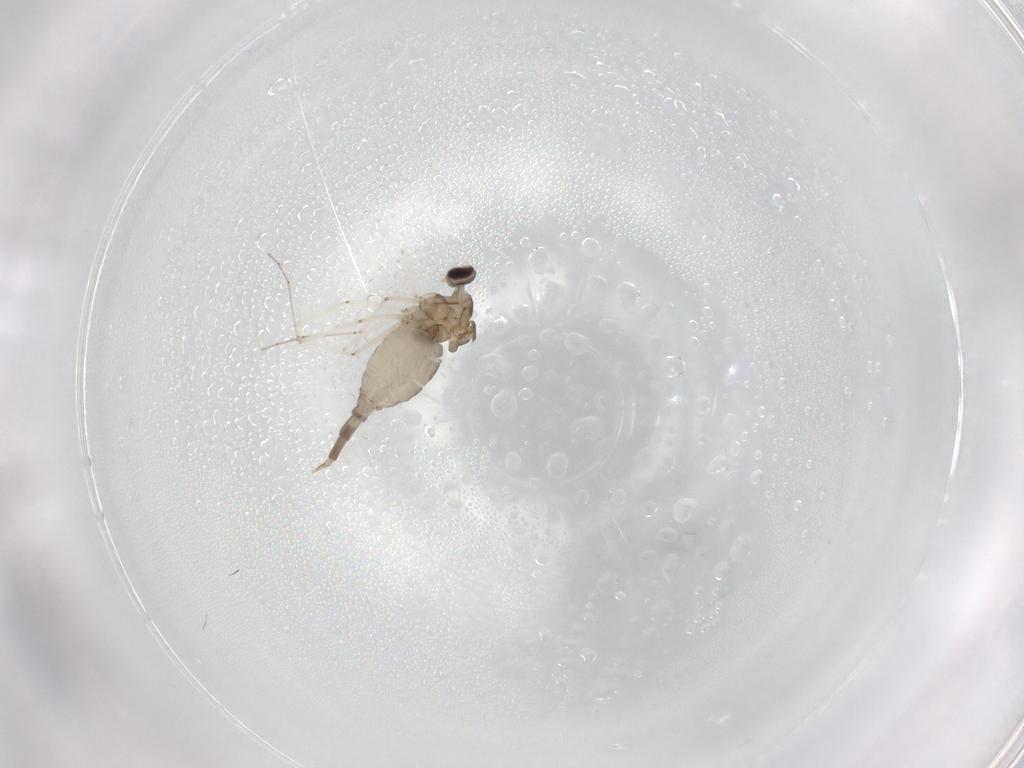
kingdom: Animalia
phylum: Arthropoda
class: Insecta
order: Diptera
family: Cecidomyiidae
